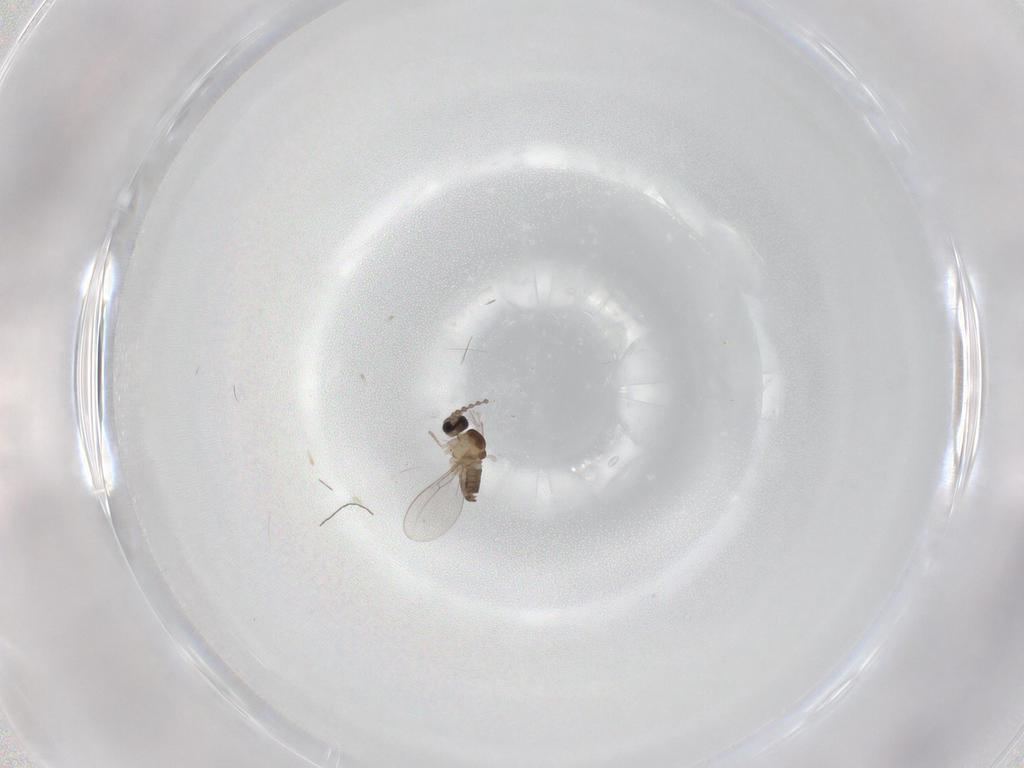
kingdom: Animalia
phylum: Arthropoda
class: Insecta
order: Diptera
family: Cecidomyiidae
